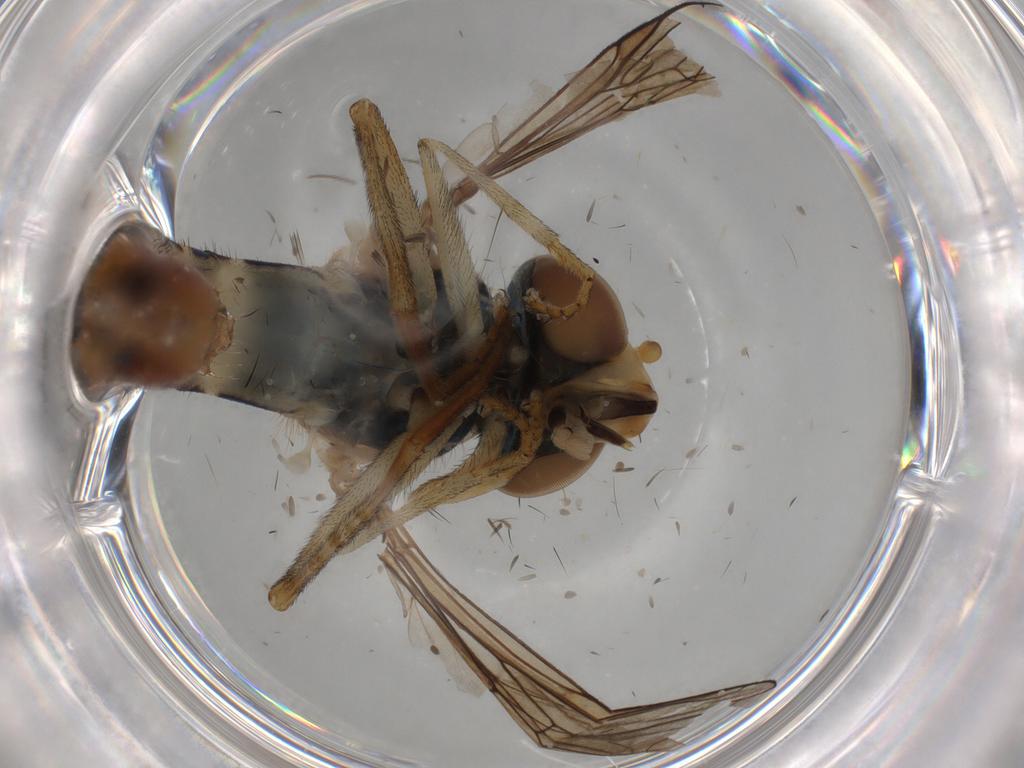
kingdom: Animalia
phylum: Arthropoda
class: Insecta
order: Diptera
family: Syrphidae
